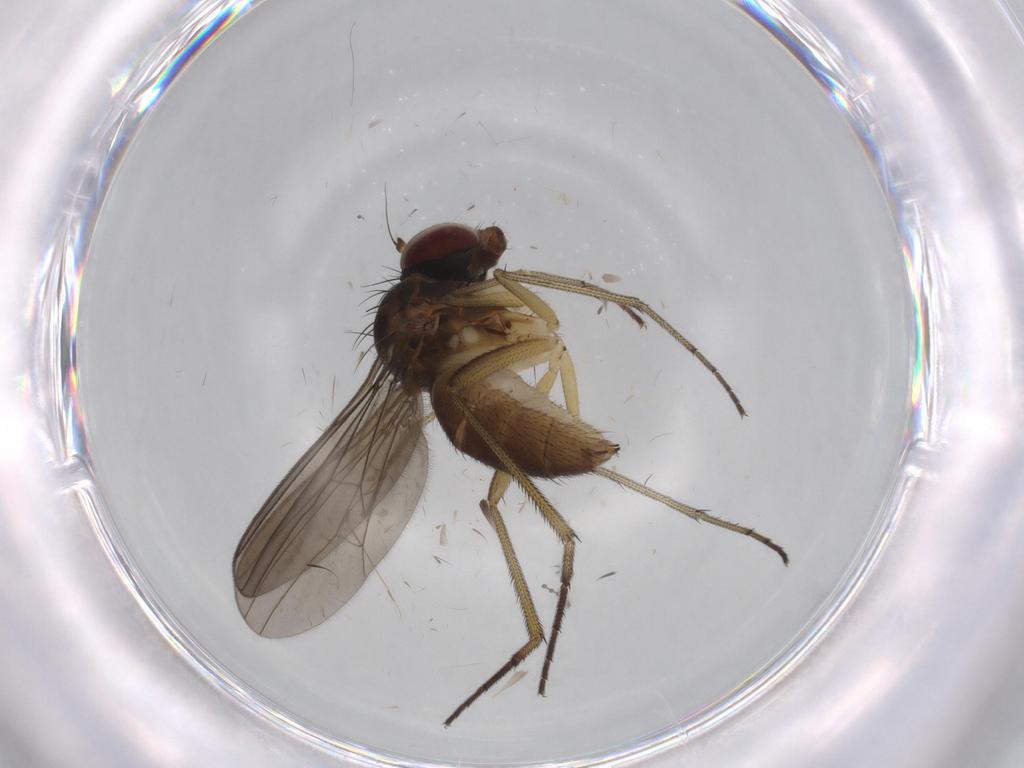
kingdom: Animalia
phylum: Arthropoda
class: Insecta
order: Diptera
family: Dolichopodidae
